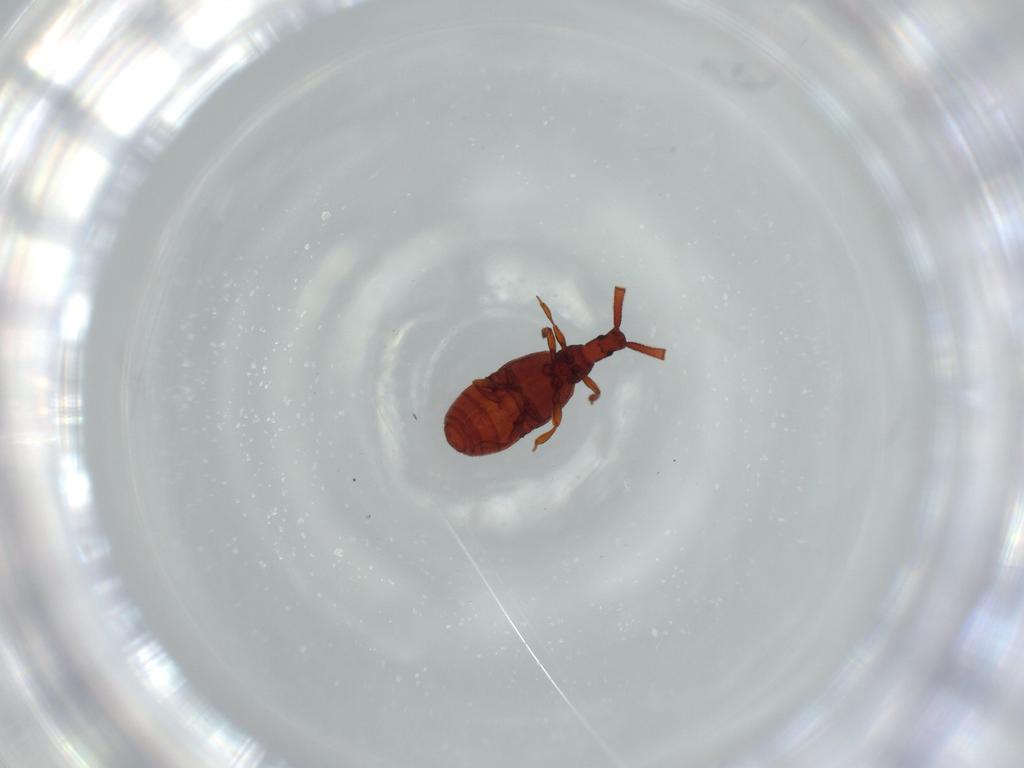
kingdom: Animalia
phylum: Arthropoda
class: Insecta
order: Coleoptera
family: Staphylinidae
